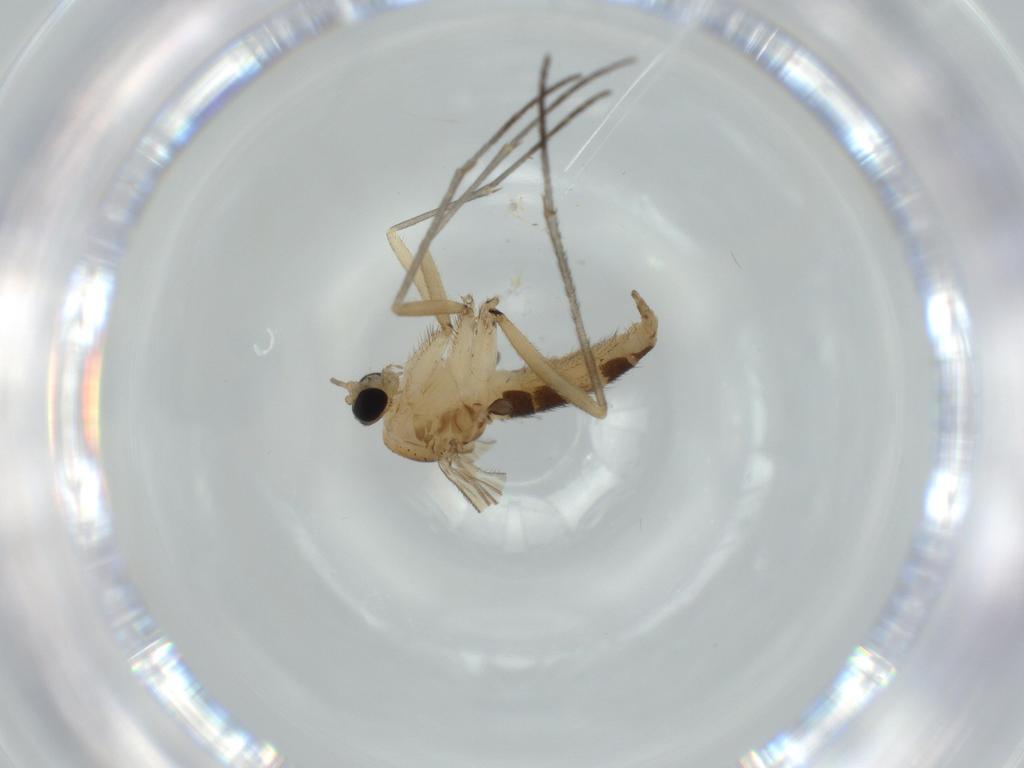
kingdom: Animalia
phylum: Arthropoda
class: Insecta
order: Diptera
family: Sciaridae
